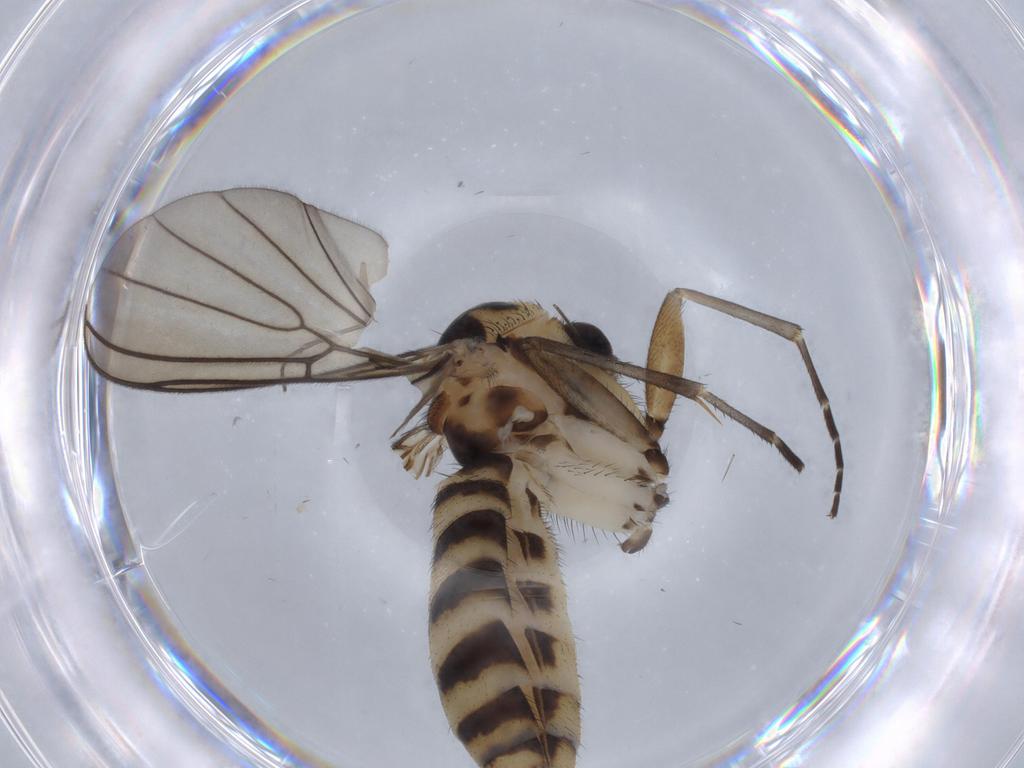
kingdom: Animalia
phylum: Arthropoda
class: Insecta
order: Diptera
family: Mycetophilidae
